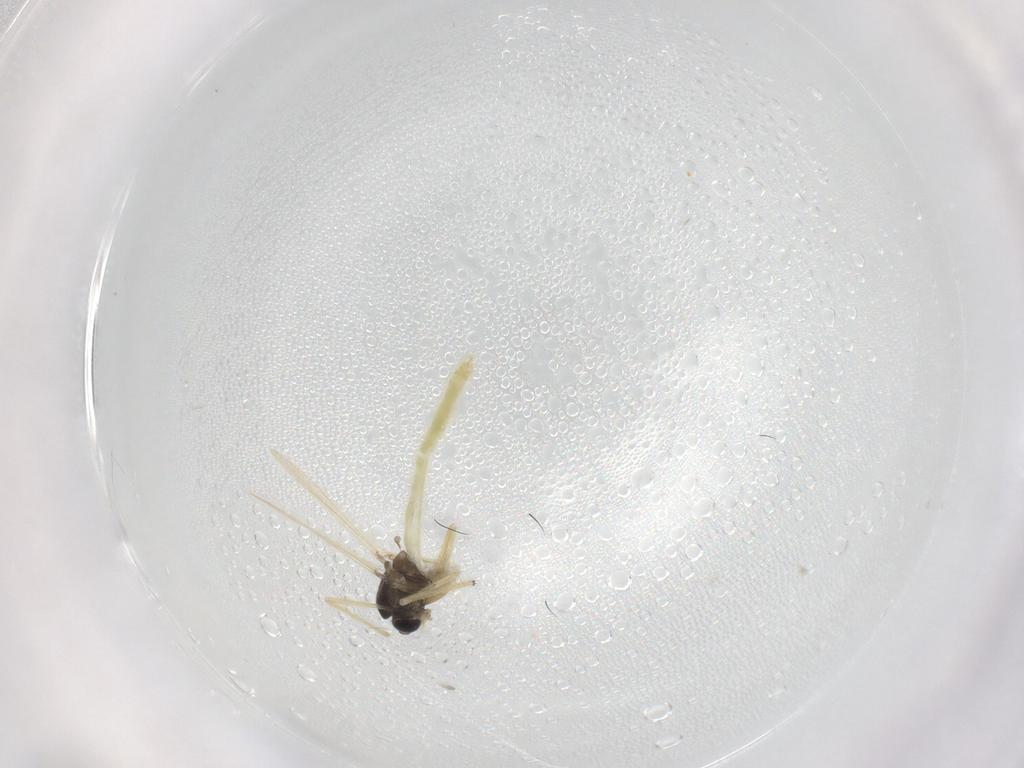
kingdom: Animalia
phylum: Arthropoda
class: Insecta
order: Diptera
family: Chironomidae
